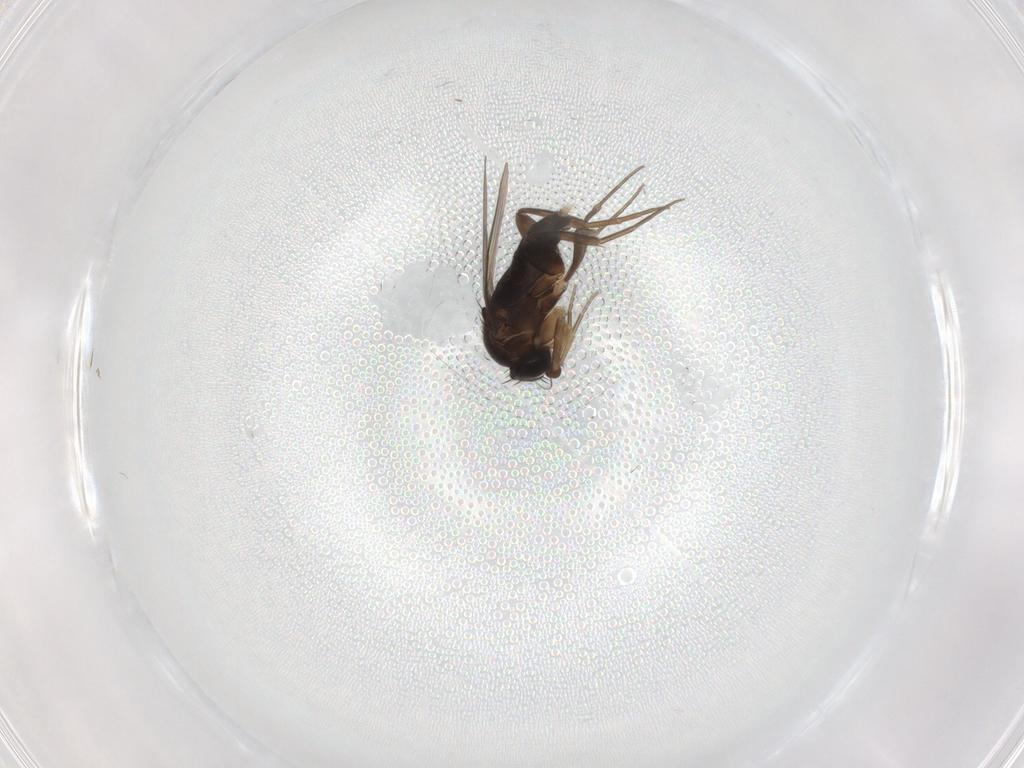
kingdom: Animalia
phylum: Arthropoda
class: Insecta
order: Diptera
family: Phoridae
